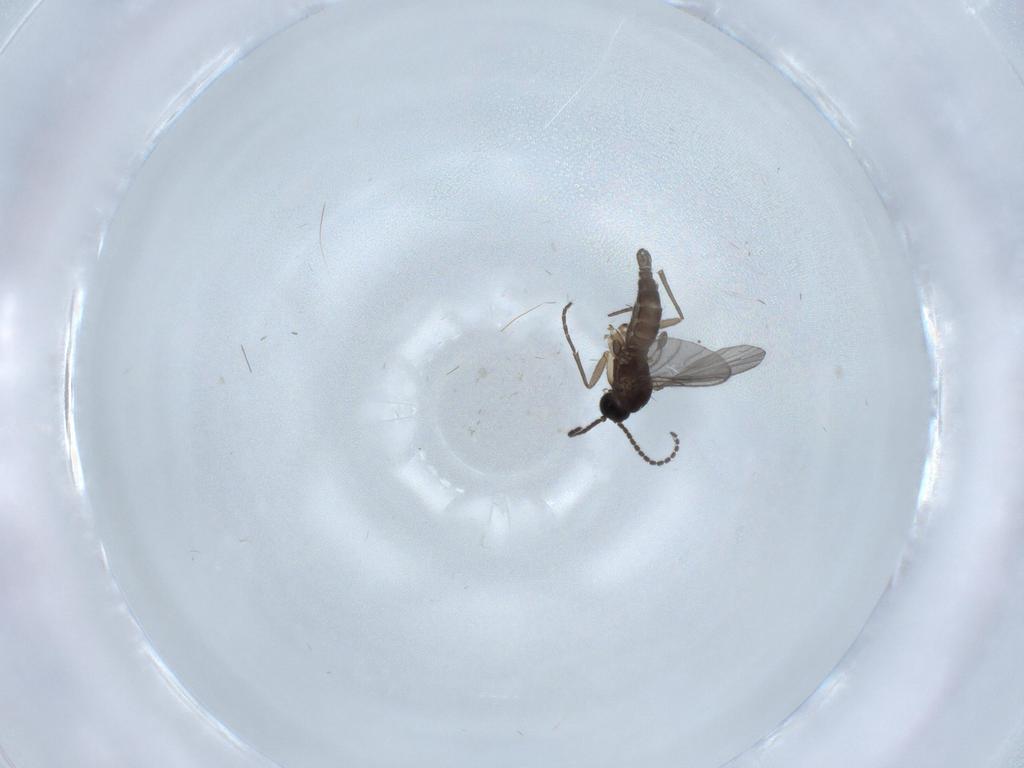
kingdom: Animalia
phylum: Arthropoda
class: Insecta
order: Diptera
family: Sciaridae
